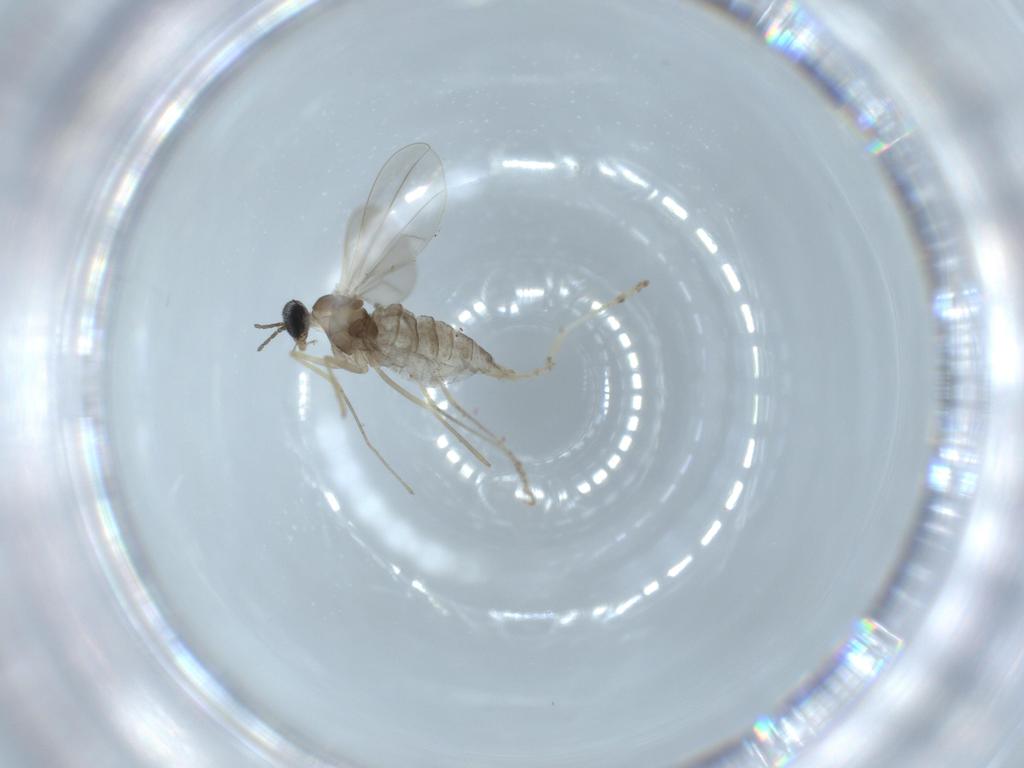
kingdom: Animalia
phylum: Arthropoda
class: Insecta
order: Diptera
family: Cecidomyiidae
